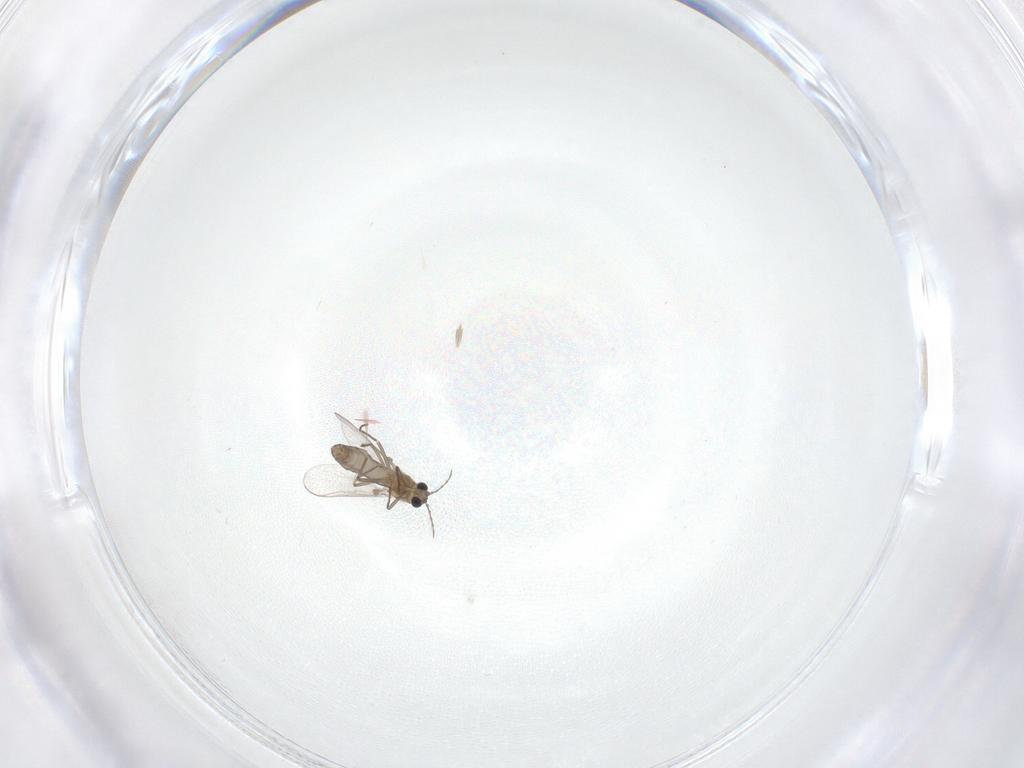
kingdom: Animalia
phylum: Arthropoda
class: Insecta
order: Diptera
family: Chironomidae
